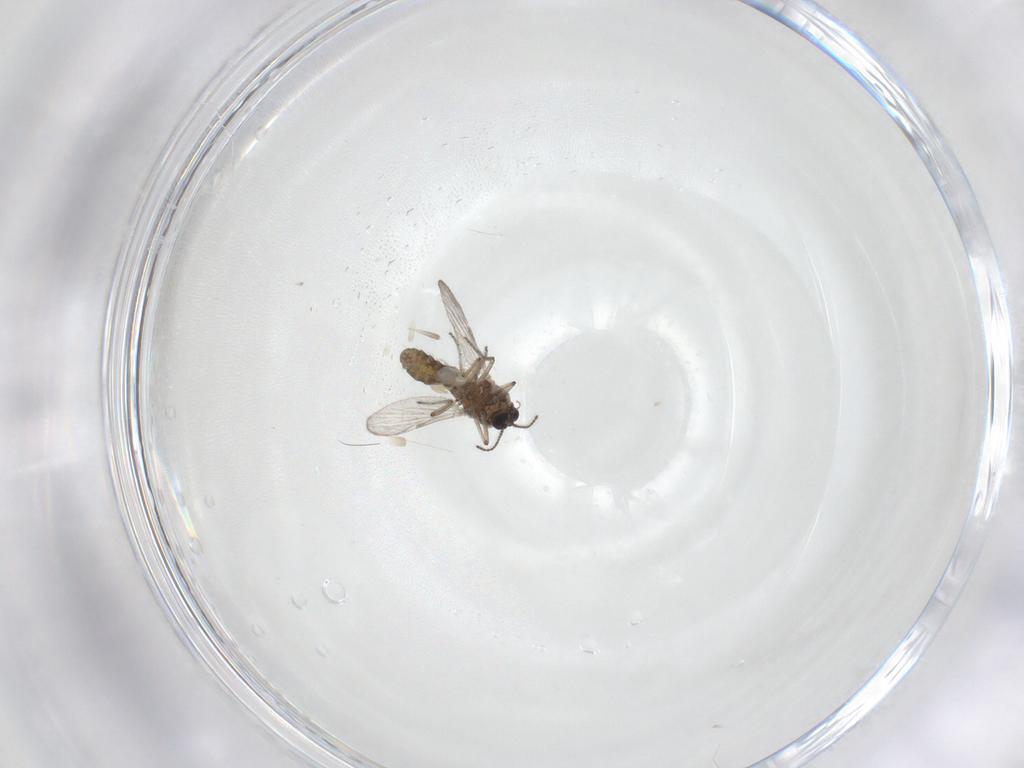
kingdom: Animalia
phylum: Arthropoda
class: Insecta
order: Diptera
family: Ceratopogonidae
